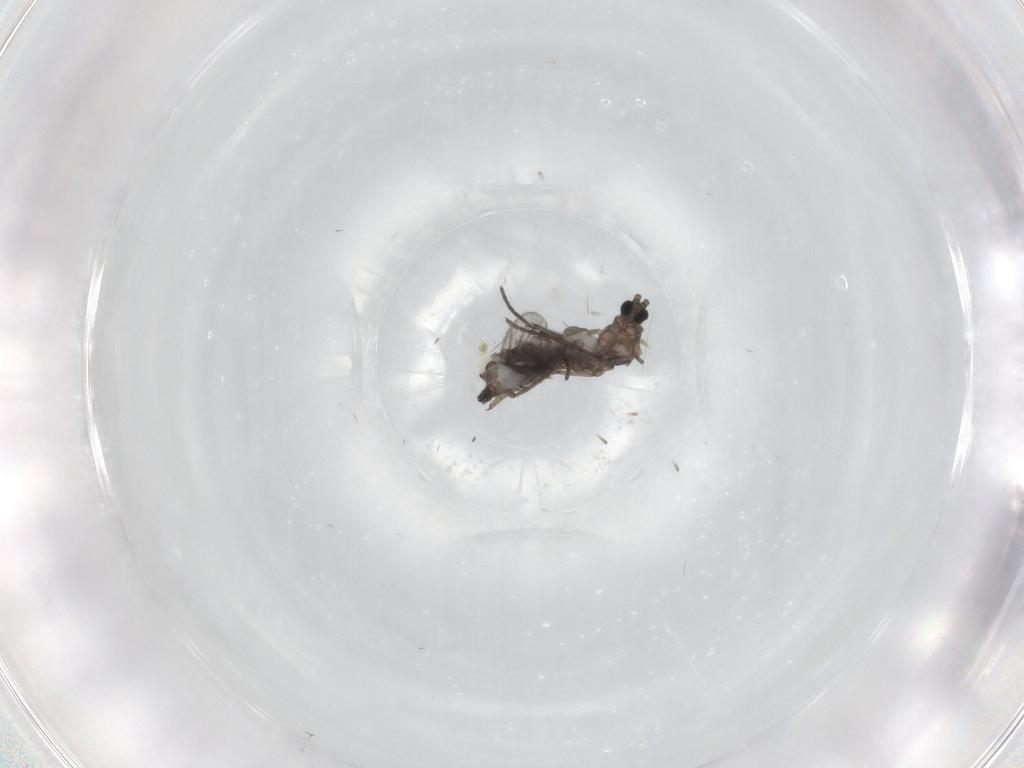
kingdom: Animalia
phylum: Arthropoda
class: Insecta
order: Diptera
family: Sciaridae
